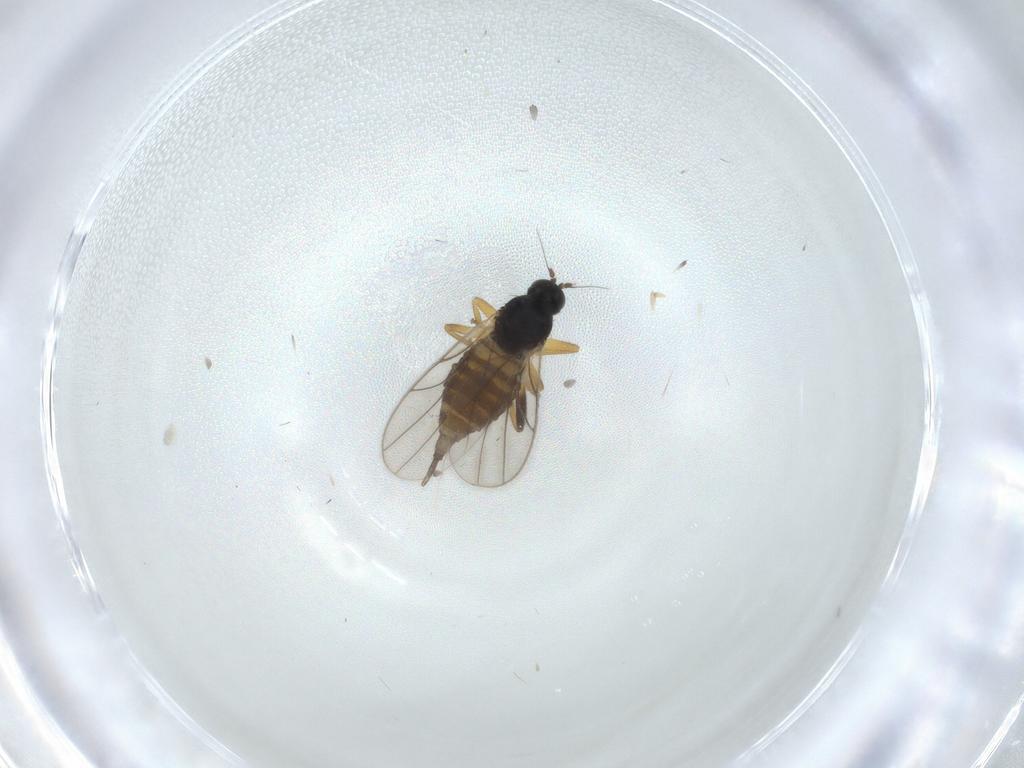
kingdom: Animalia
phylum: Arthropoda
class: Insecta
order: Diptera
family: Hybotidae
